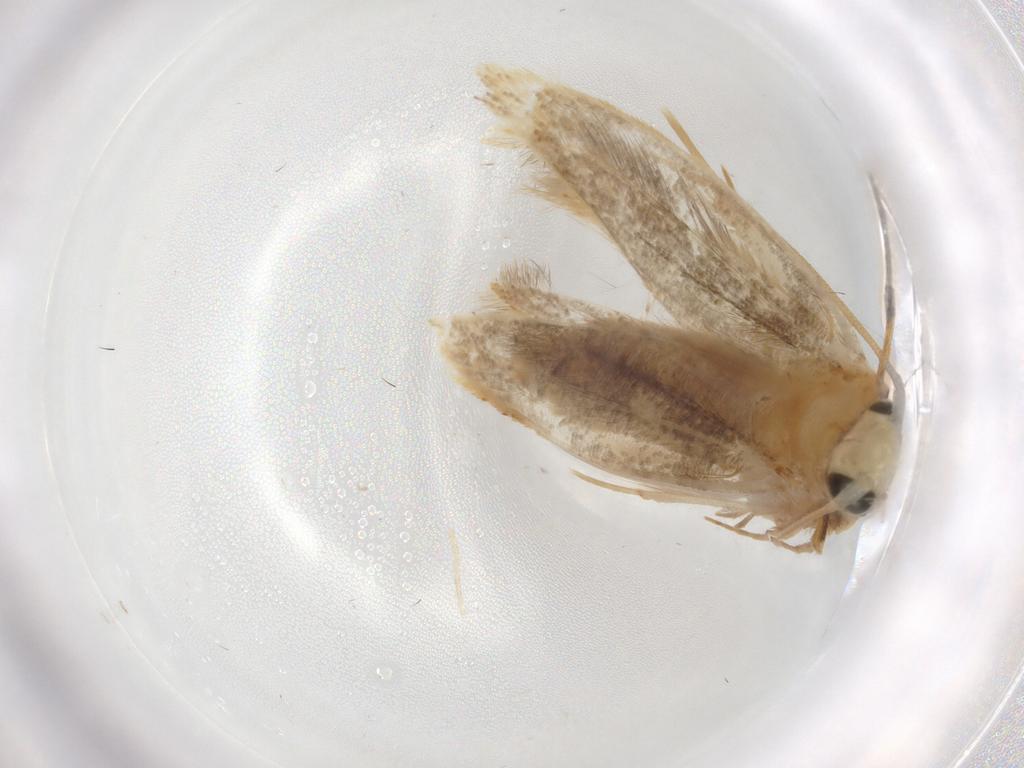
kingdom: Animalia
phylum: Arthropoda
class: Insecta
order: Lepidoptera
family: Tineidae
